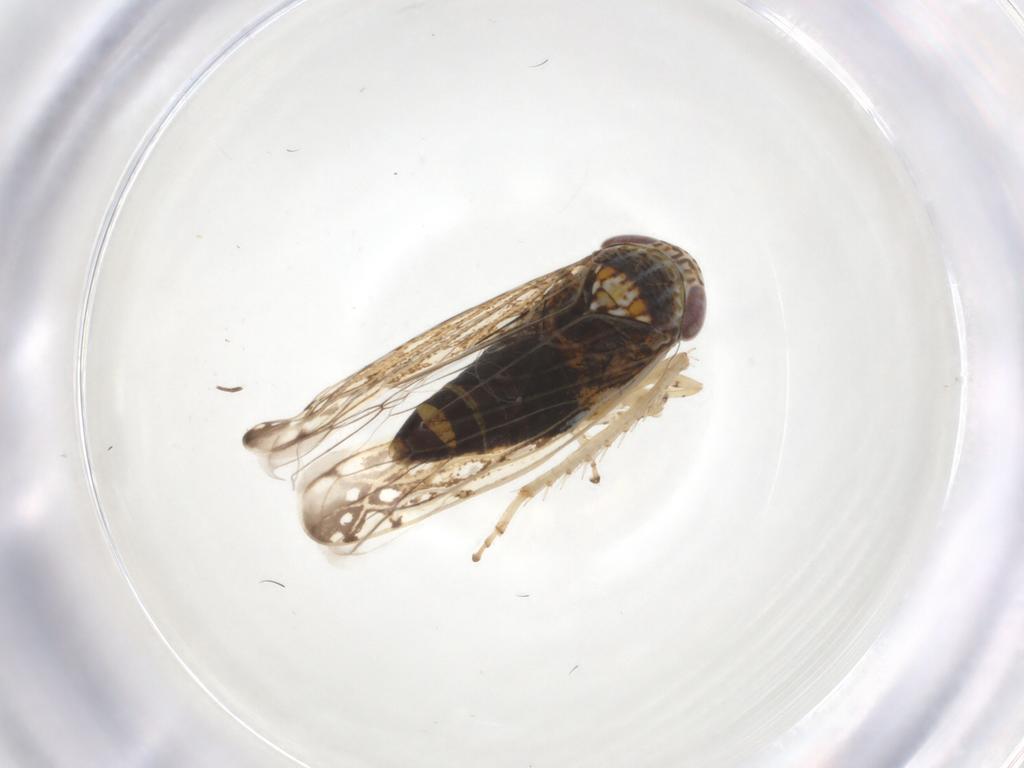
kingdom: Animalia
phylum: Arthropoda
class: Insecta
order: Hemiptera
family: Cicadellidae
